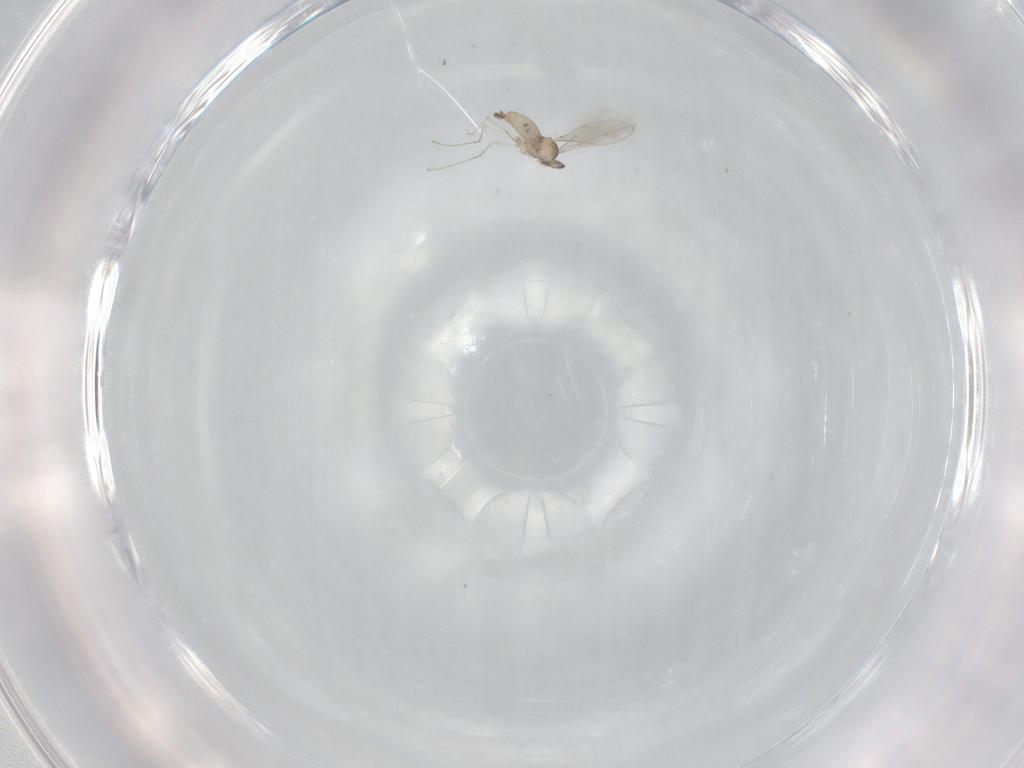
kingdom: Animalia
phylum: Arthropoda
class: Insecta
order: Diptera
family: Cecidomyiidae
